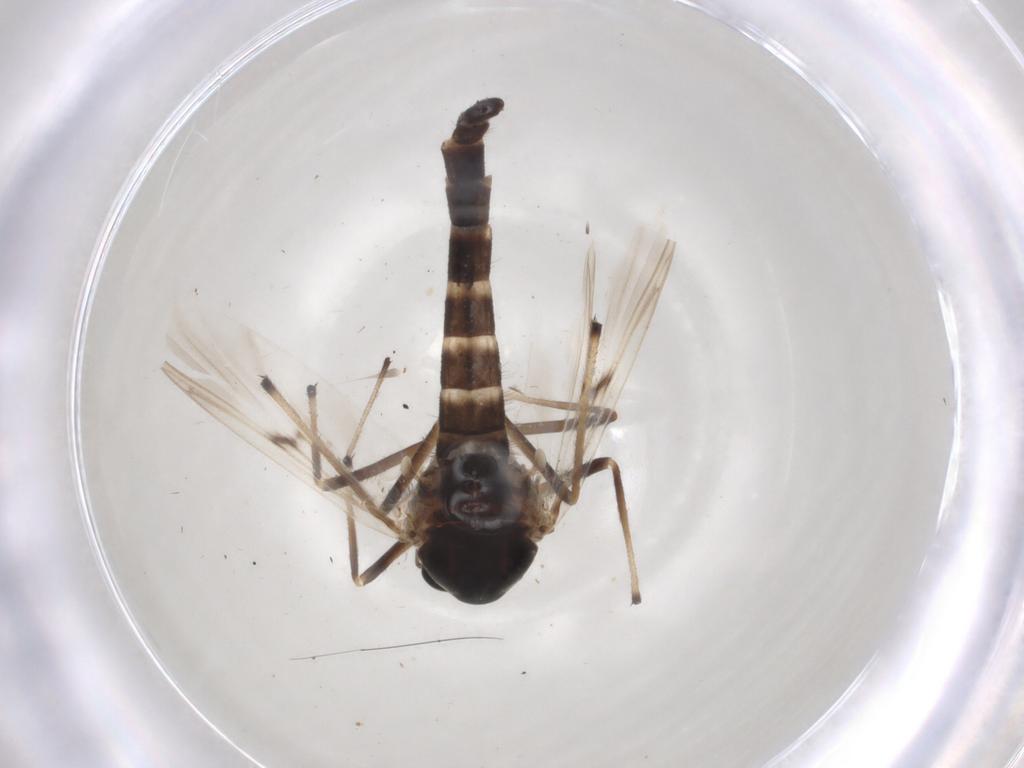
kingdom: Animalia
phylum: Arthropoda
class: Insecta
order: Diptera
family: Chironomidae
